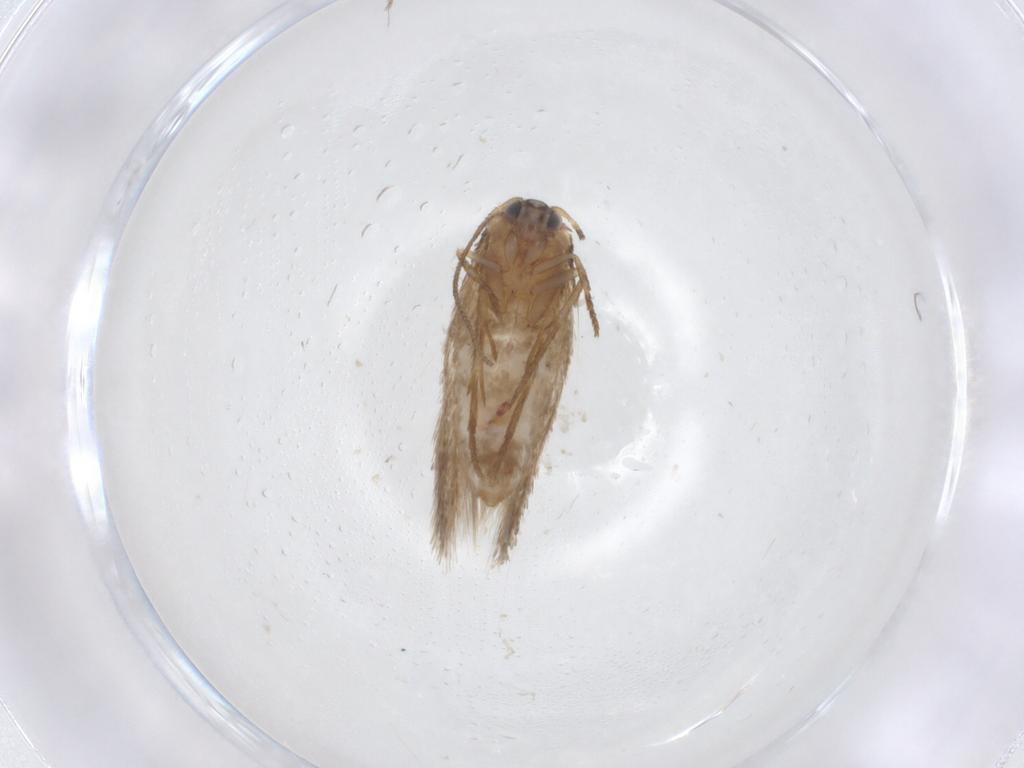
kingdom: Animalia
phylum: Arthropoda
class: Insecta
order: Lepidoptera
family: Nepticulidae
